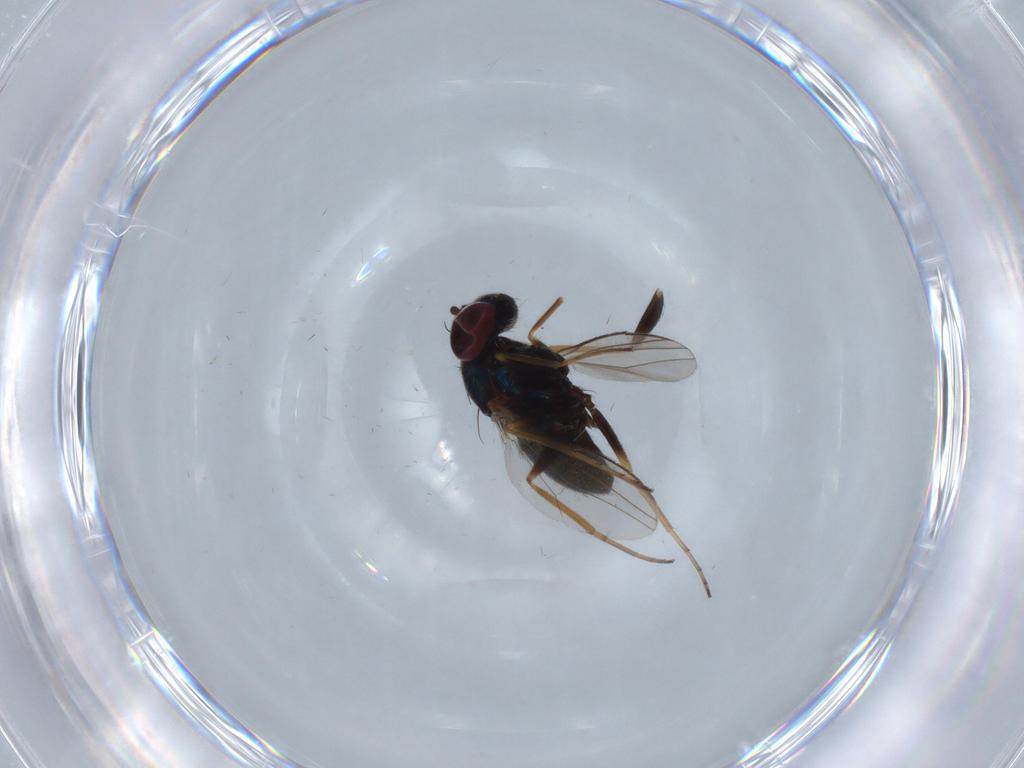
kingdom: Animalia
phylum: Arthropoda
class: Insecta
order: Diptera
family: Dolichopodidae
